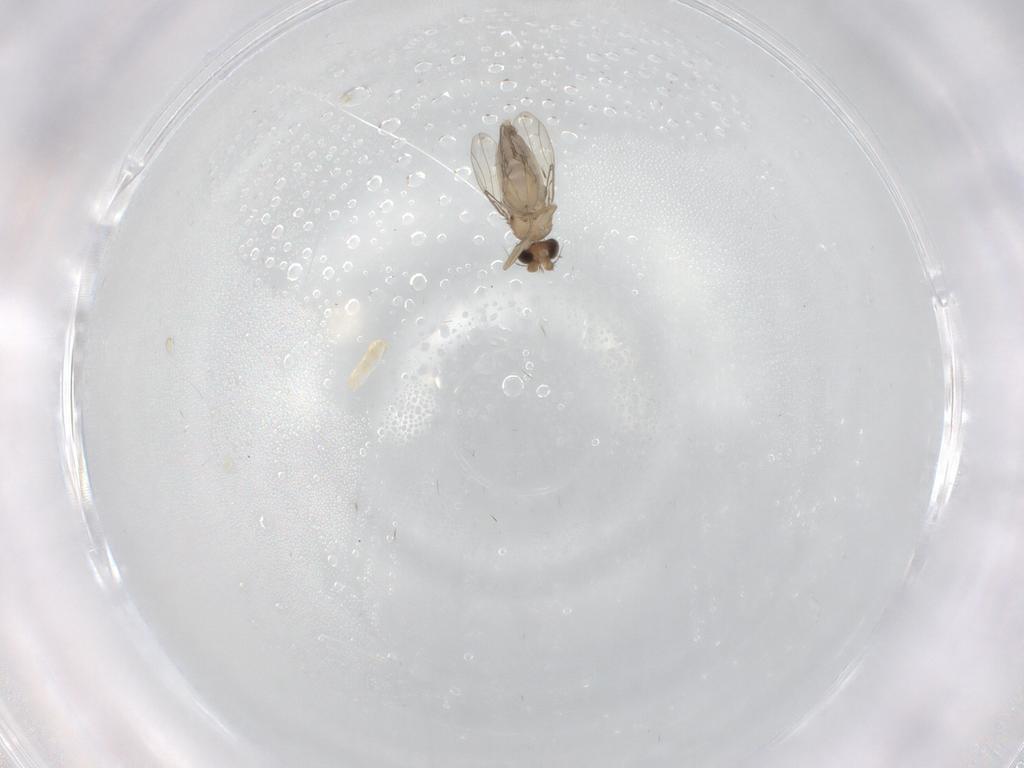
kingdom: Animalia
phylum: Arthropoda
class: Insecta
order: Diptera
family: Phoridae
